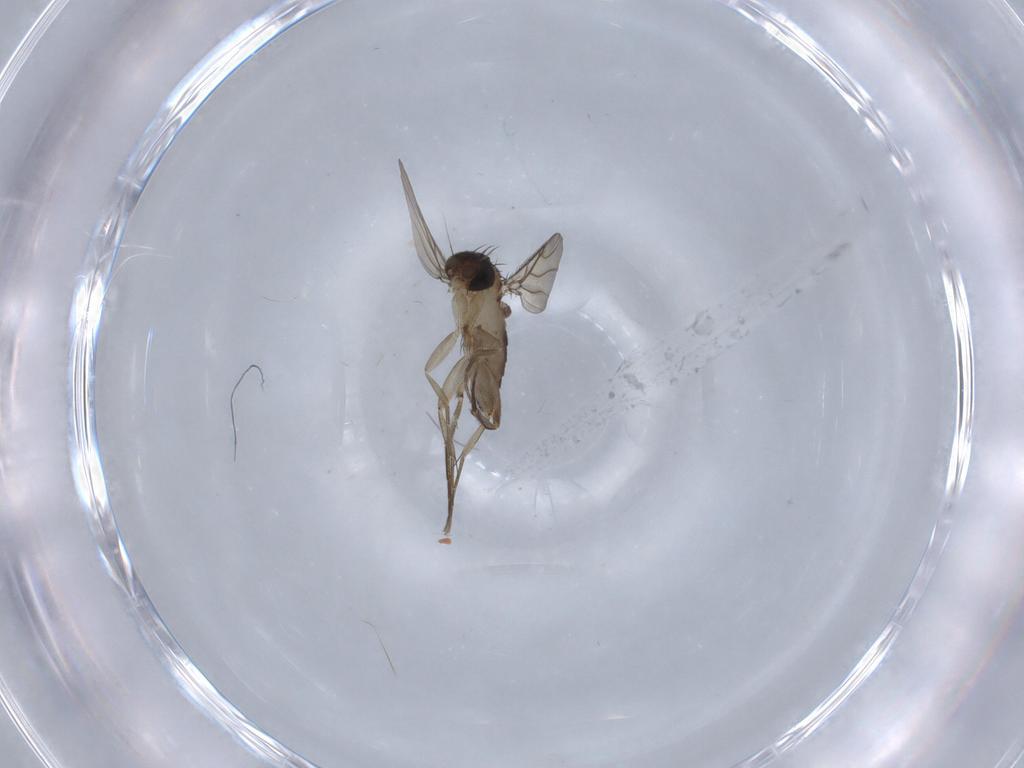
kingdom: Animalia
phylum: Arthropoda
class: Insecta
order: Diptera
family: Phoridae
